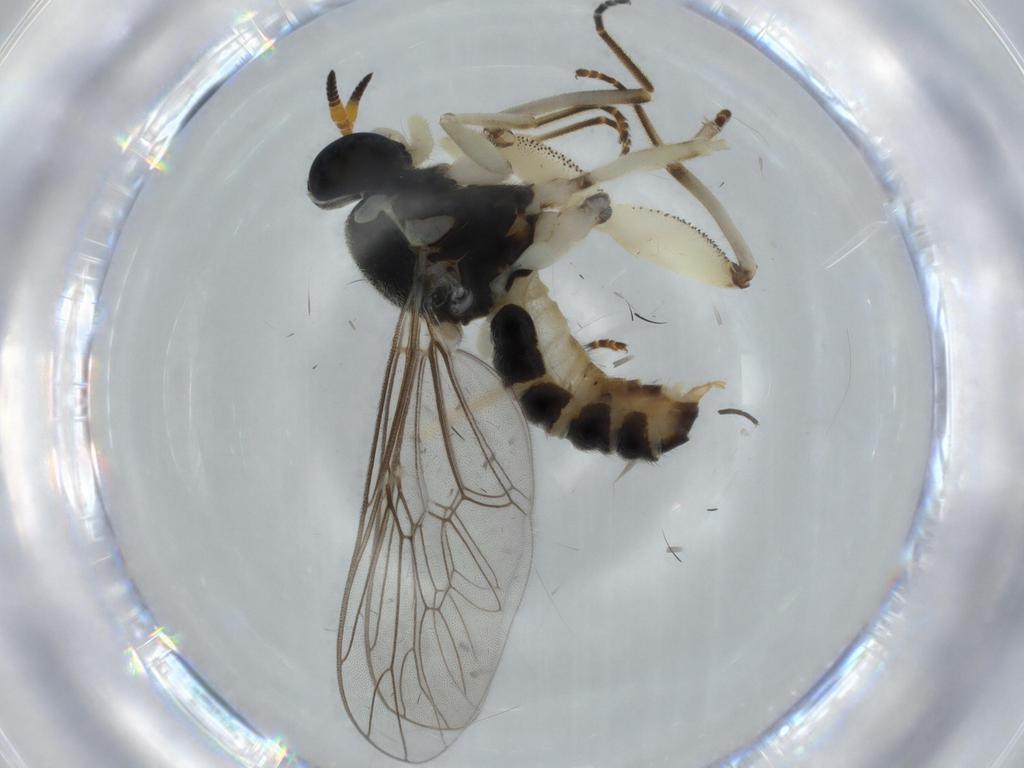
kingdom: Animalia
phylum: Arthropoda
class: Insecta
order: Diptera
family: Sciaridae
